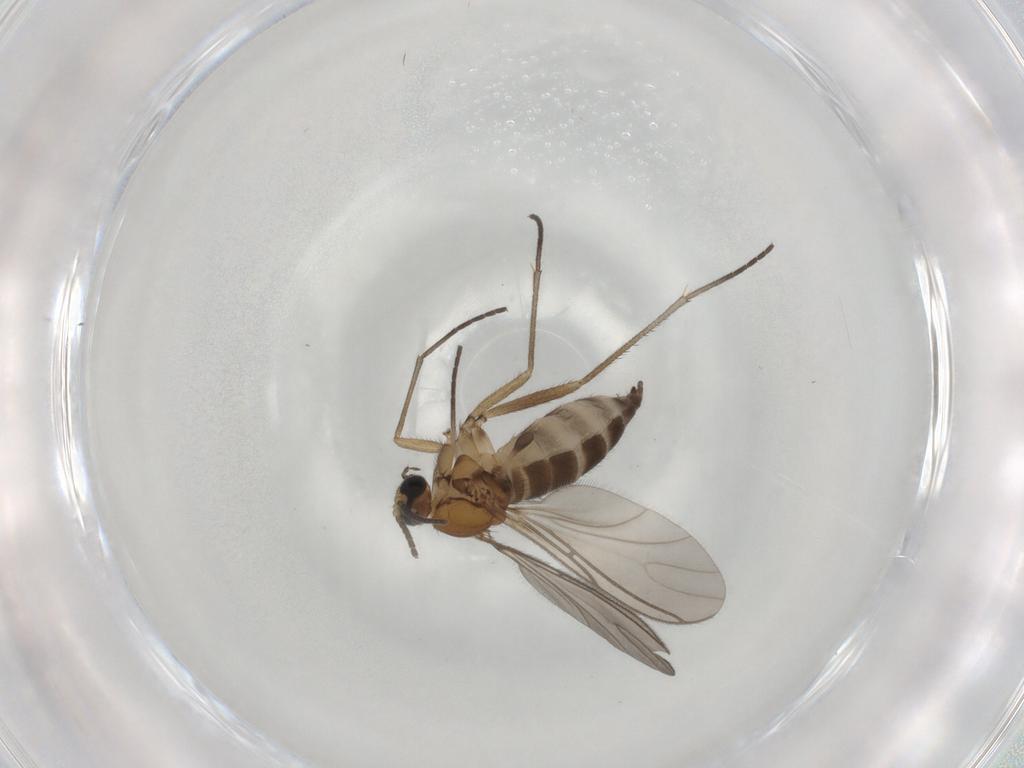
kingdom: Animalia
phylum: Arthropoda
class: Insecta
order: Diptera
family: Sciaridae
